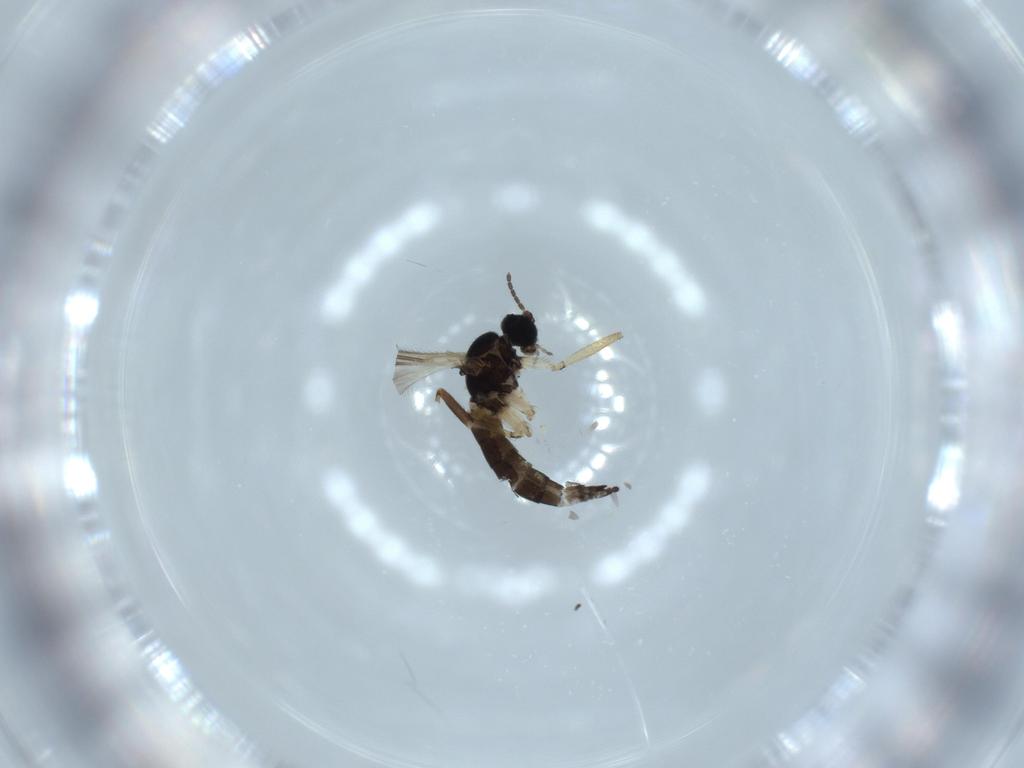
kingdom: Animalia
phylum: Arthropoda
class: Insecta
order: Diptera
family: Sciaridae
